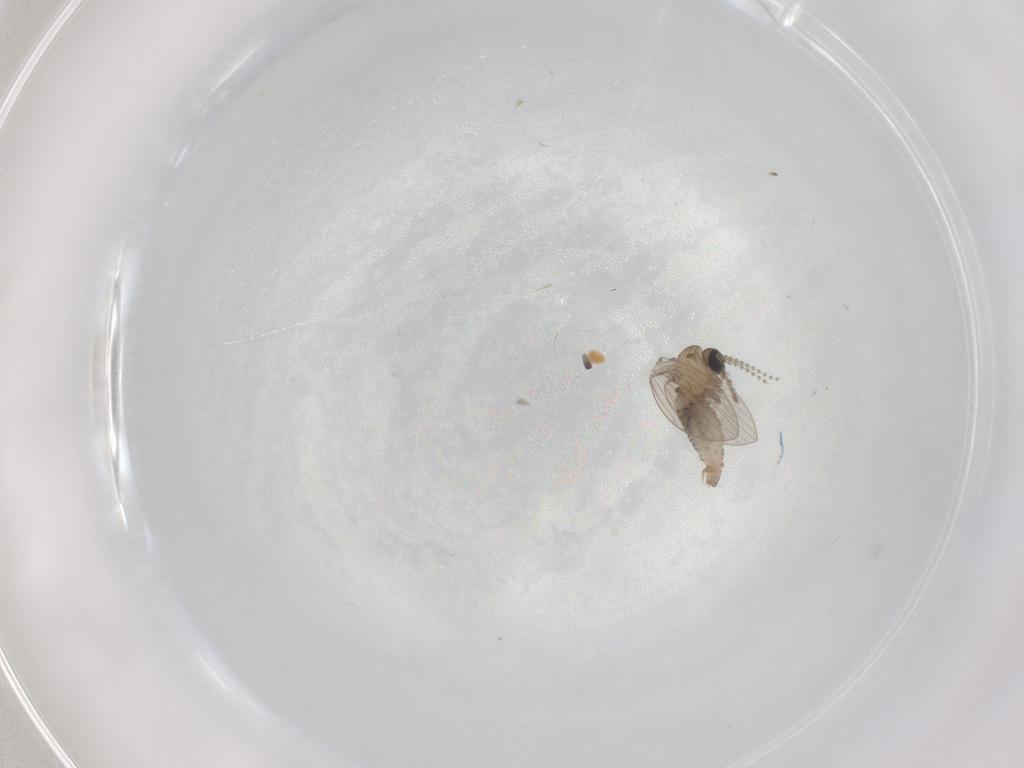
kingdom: Animalia
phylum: Arthropoda
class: Insecta
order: Diptera
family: Psychodidae
